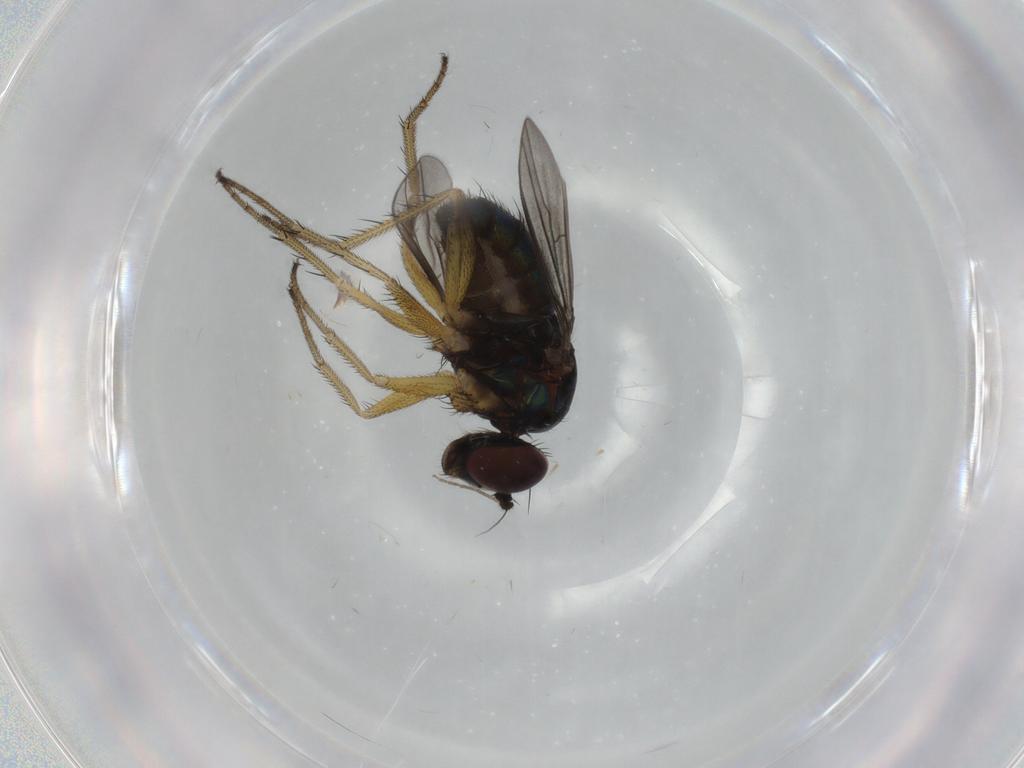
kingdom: Animalia
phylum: Arthropoda
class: Insecta
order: Diptera
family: Dolichopodidae
